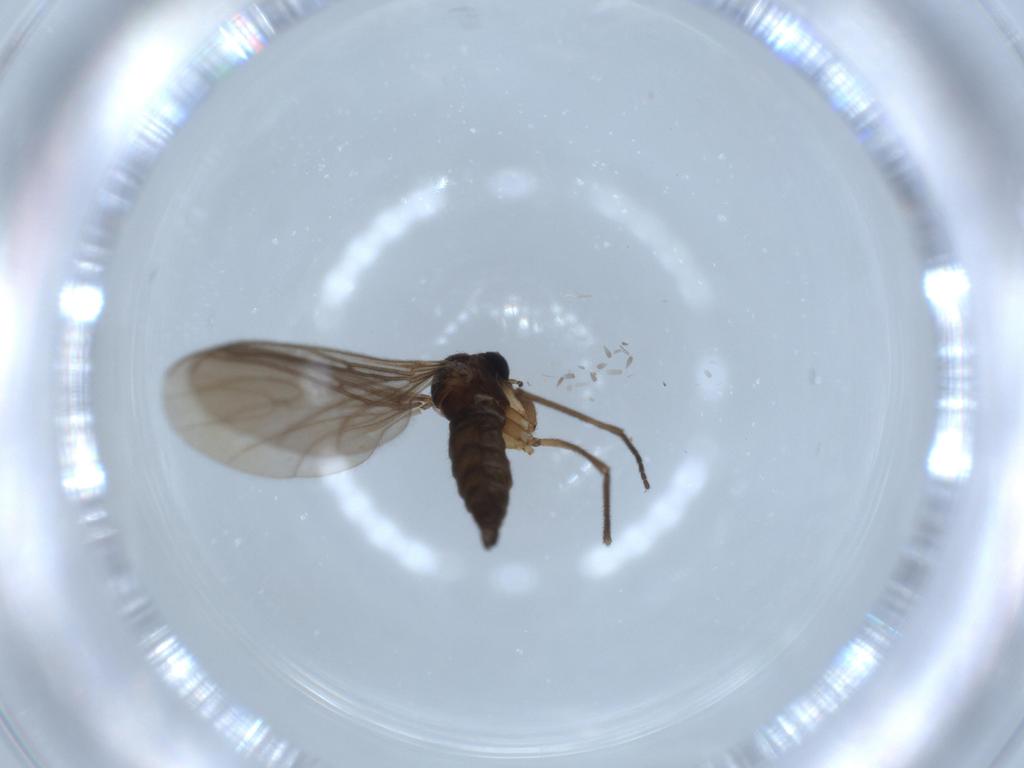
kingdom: Animalia
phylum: Arthropoda
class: Insecta
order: Diptera
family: Sciaridae
